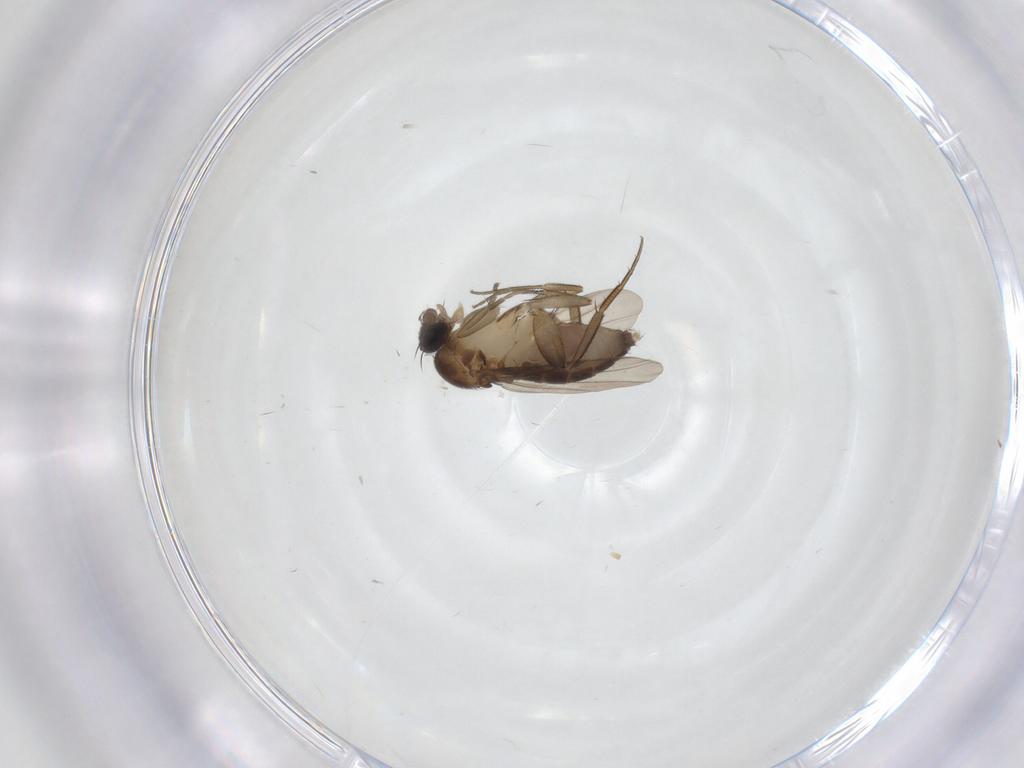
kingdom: Animalia
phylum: Arthropoda
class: Insecta
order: Diptera
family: Phoridae
